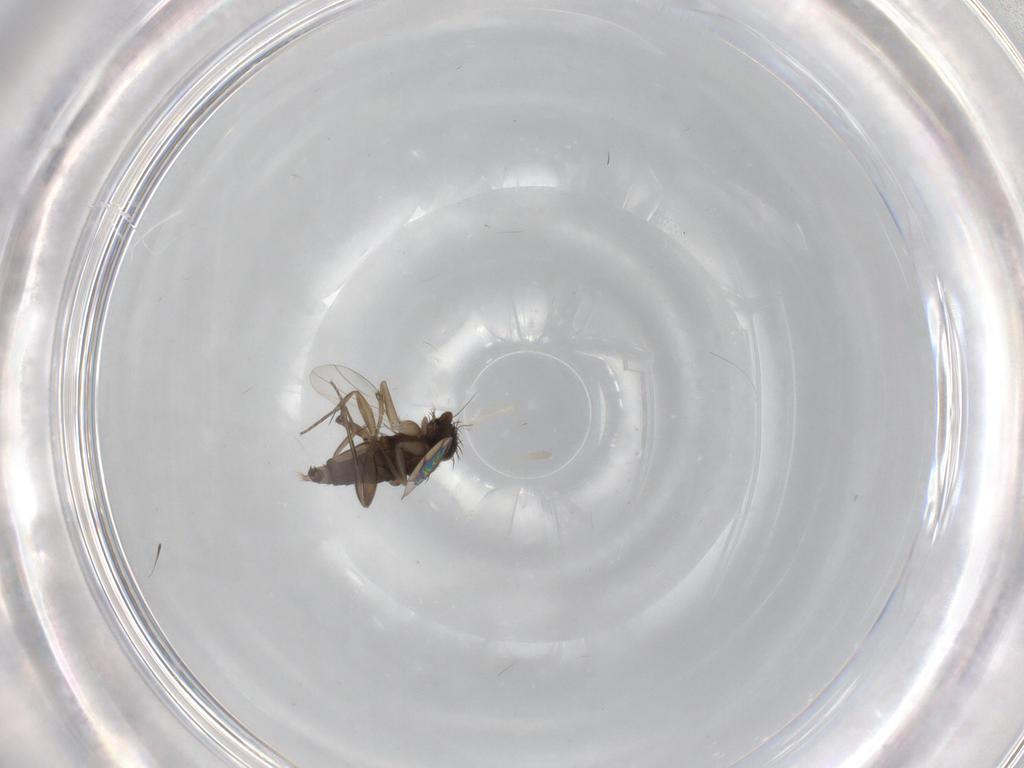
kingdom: Animalia
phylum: Arthropoda
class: Insecta
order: Diptera
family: Phoridae
